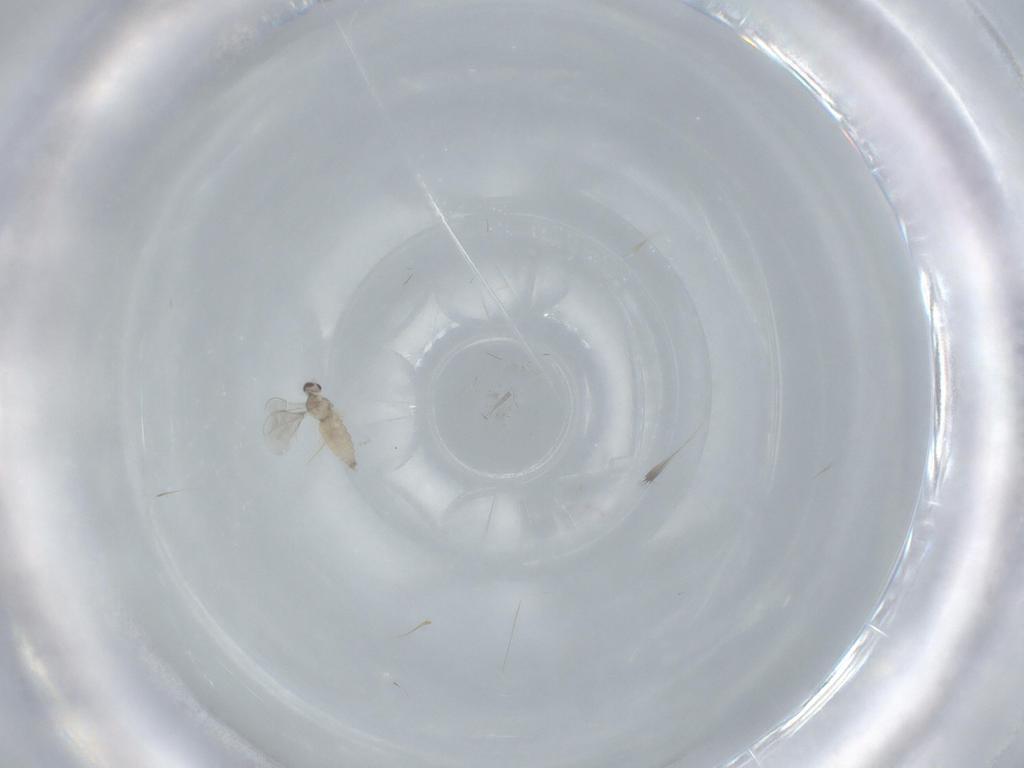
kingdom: Animalia
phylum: Arthropoda
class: Insecta
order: Diptera
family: Cecidomyiidae
